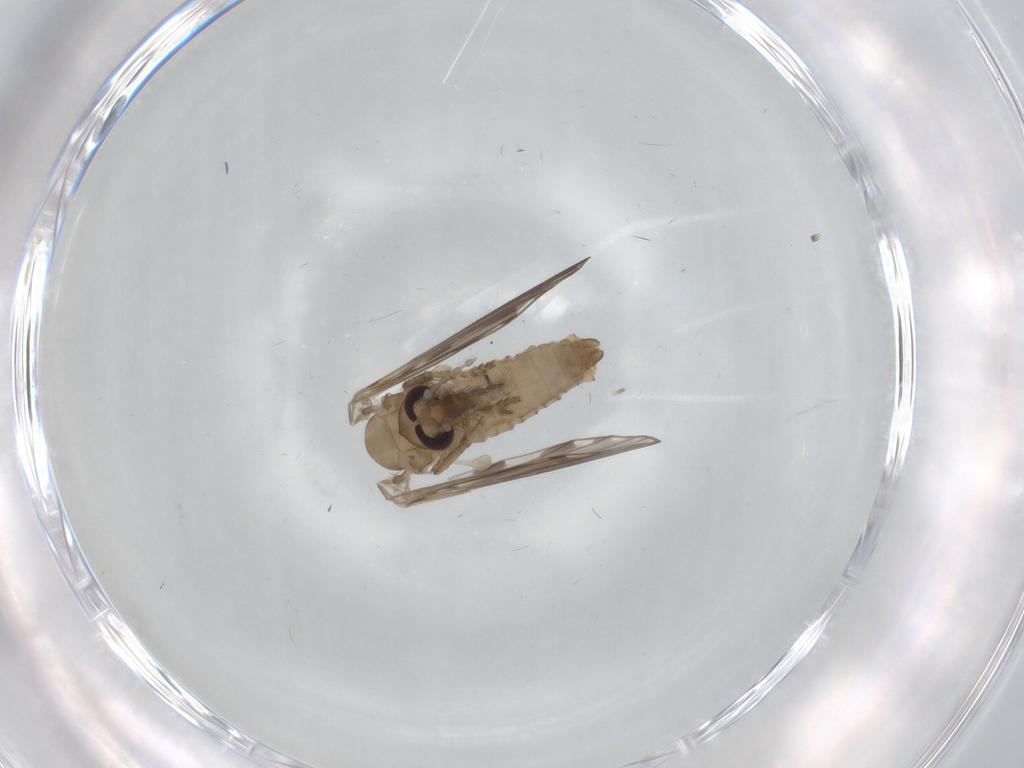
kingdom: Animalia
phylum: Arthropoda
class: Insecta
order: Diptera
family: Psychodidae
